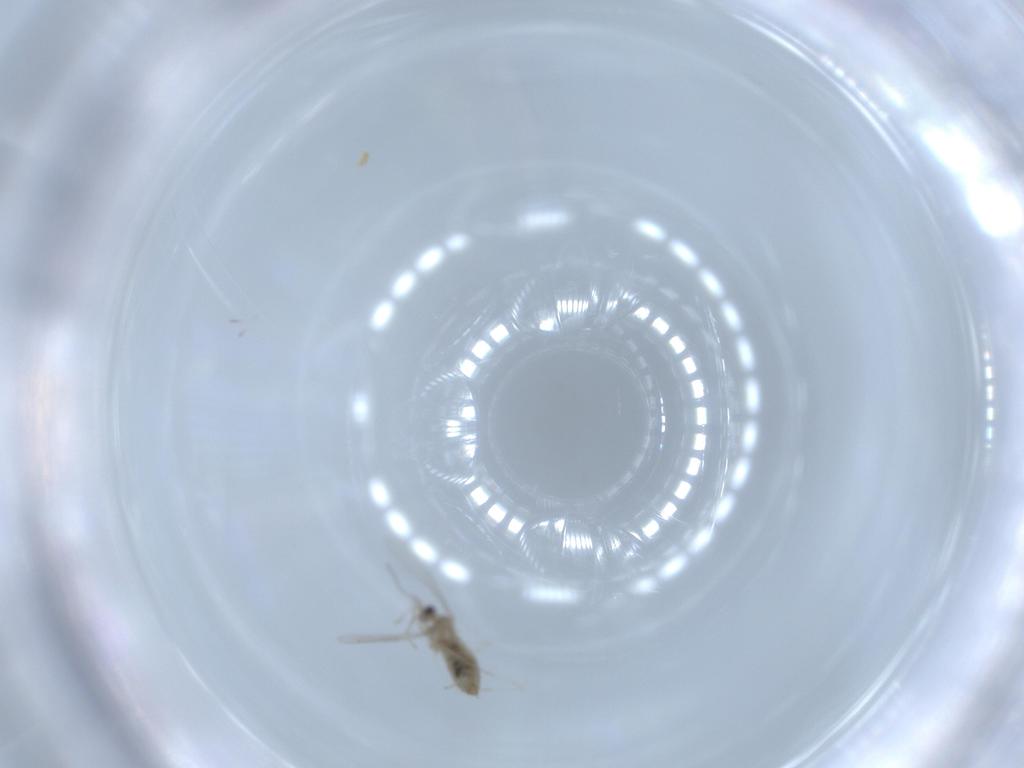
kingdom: Animalia
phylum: Arthropoda
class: Insecta
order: Diptera
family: Cecidomyiidae
